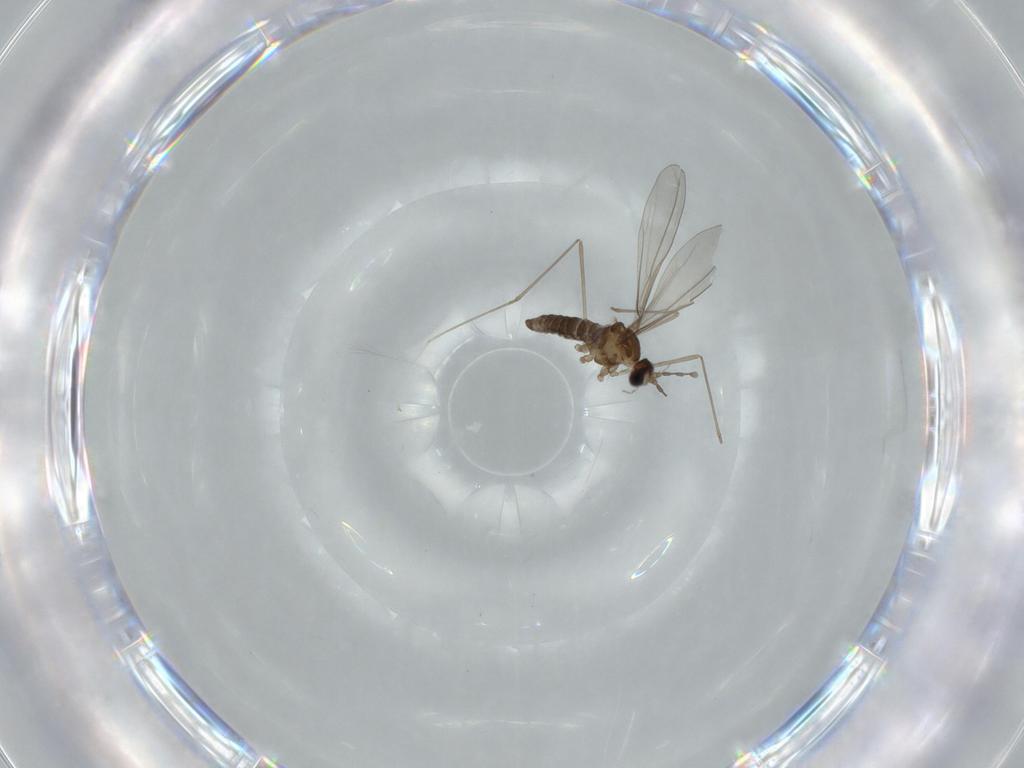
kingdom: Animalia
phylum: Arthropoda
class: Insecta
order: Diptera
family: Cecidomyiidae
